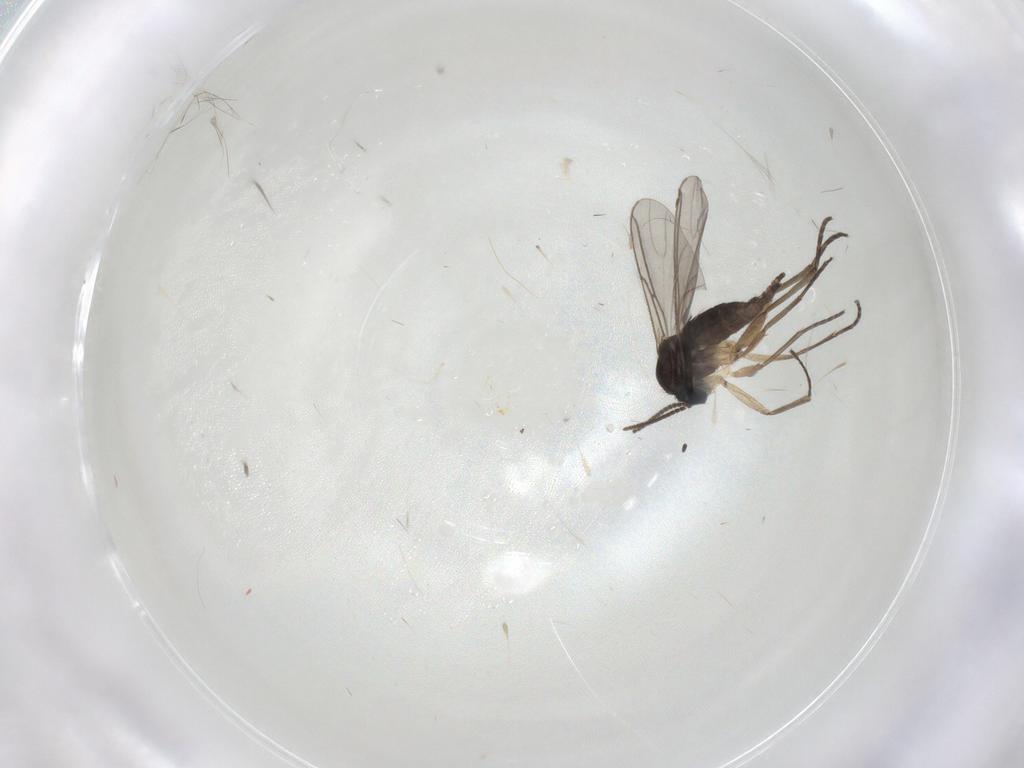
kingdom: Animalia
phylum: Arthropoda
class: Insecta
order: Diptera
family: Sciaridae
